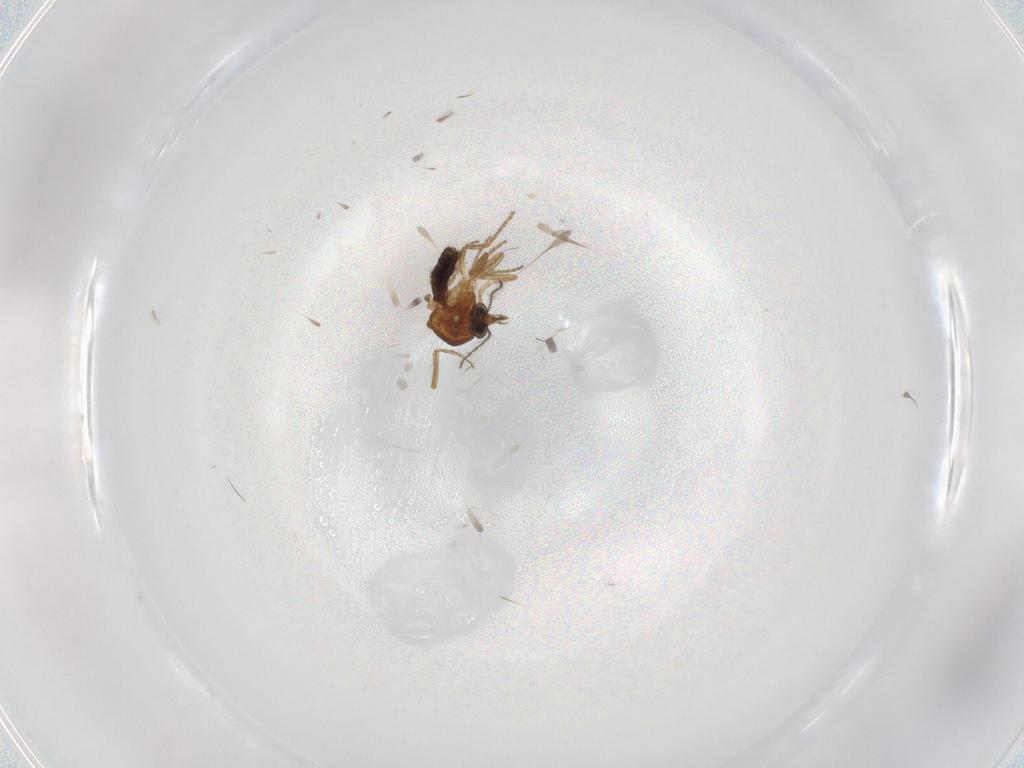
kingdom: Animalia
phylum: Arthropoda
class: Insecta
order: Diptera
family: Ceratopogonidae
